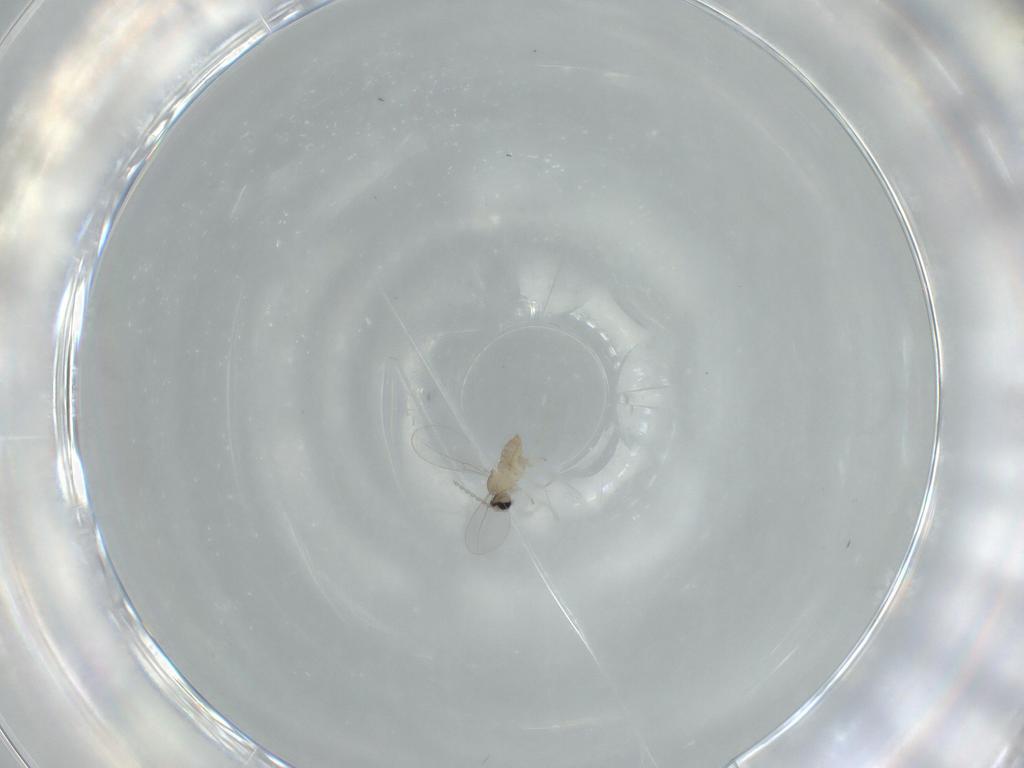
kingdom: Animalia
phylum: Arthropoda
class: Insecta
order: Diptera
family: Cecidomyiidae
